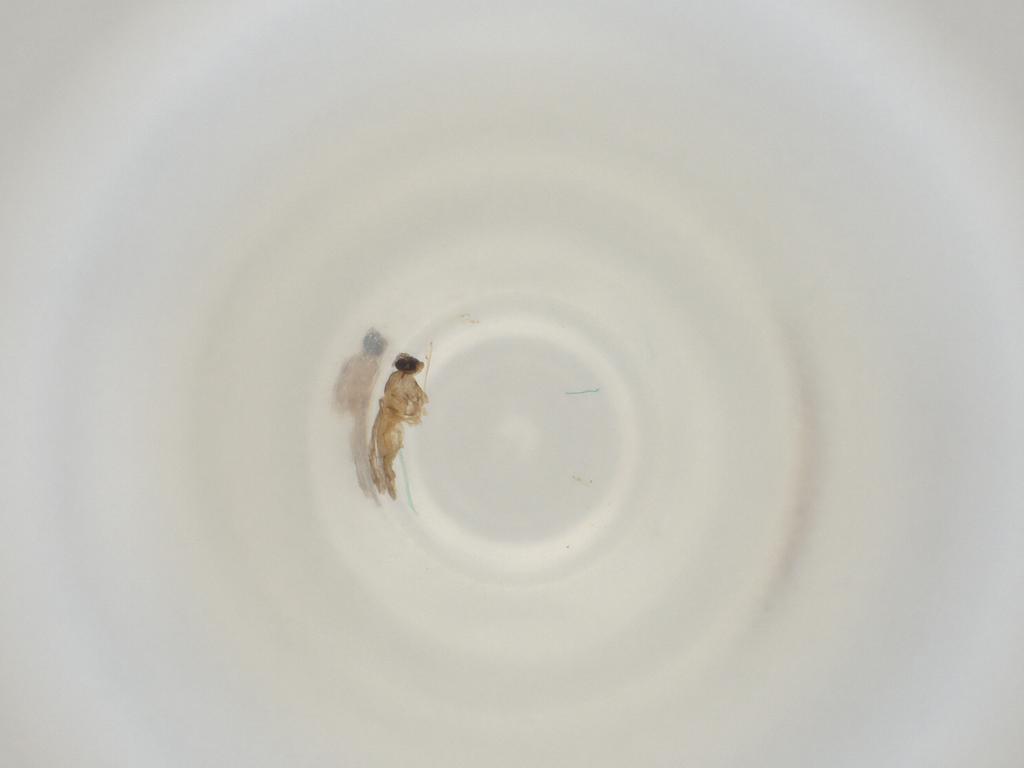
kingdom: Animalia
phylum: Arthropoda
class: Insecta
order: Diptera
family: Cecidomyiidae
